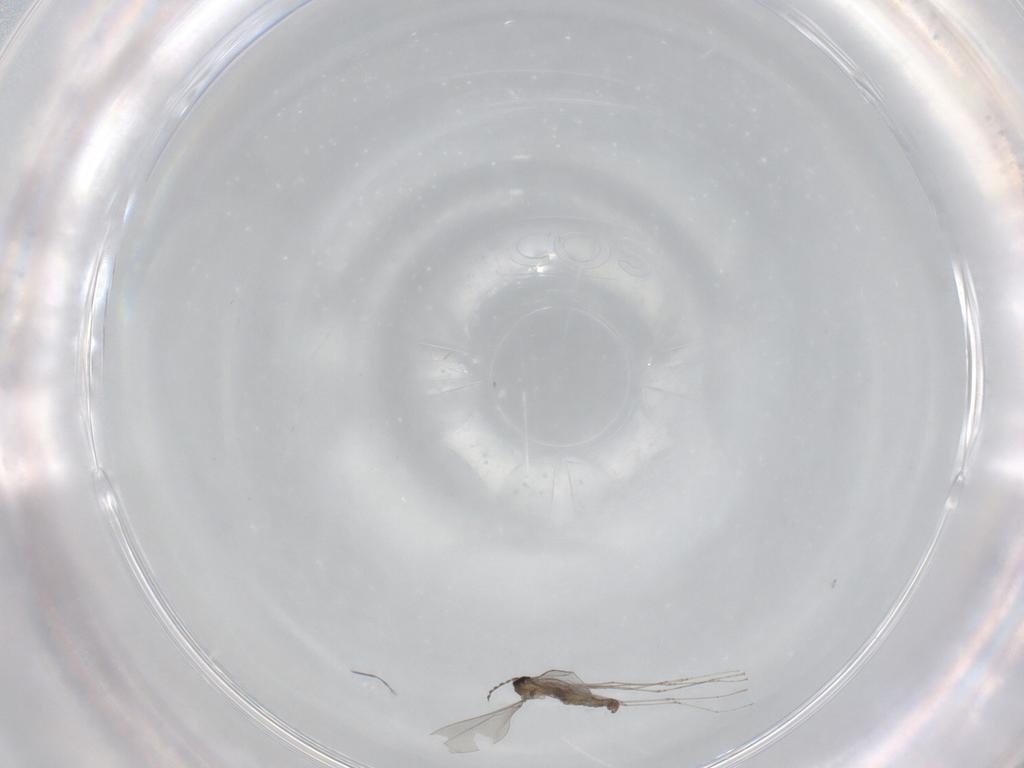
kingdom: Animalia
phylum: Arthropoda
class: Insecta
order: Diptera
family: Cecidomyiidae
